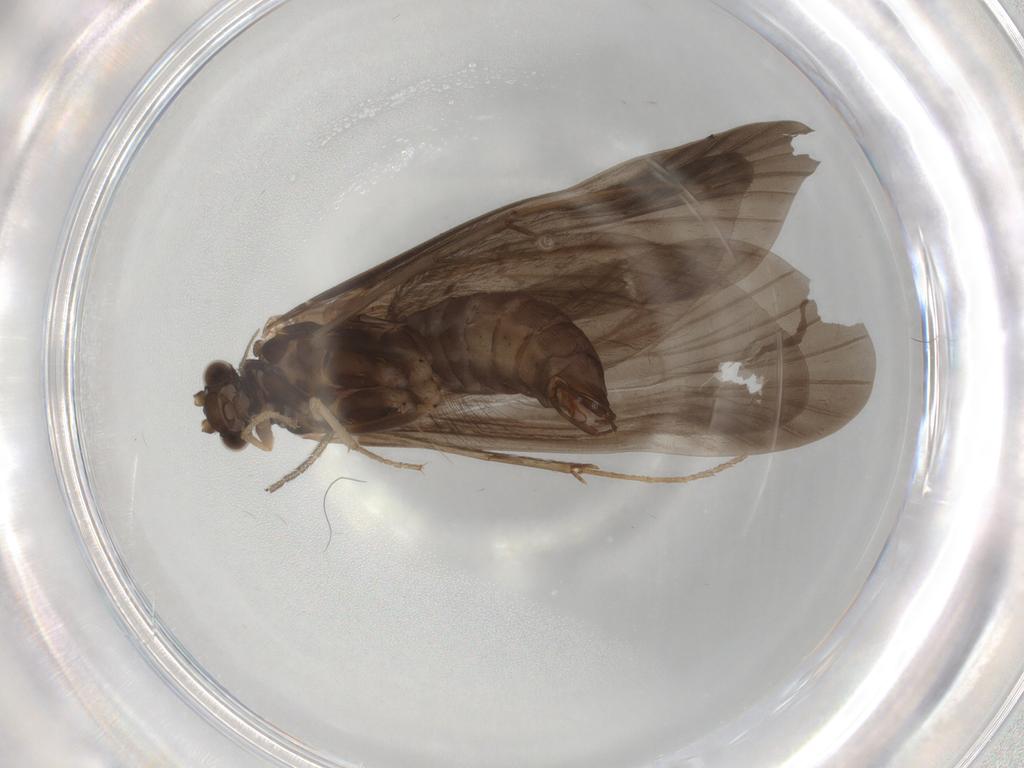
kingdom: Animalia
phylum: Arthropoda
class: Insecta
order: Trichoptera
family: Hydropsychidae
